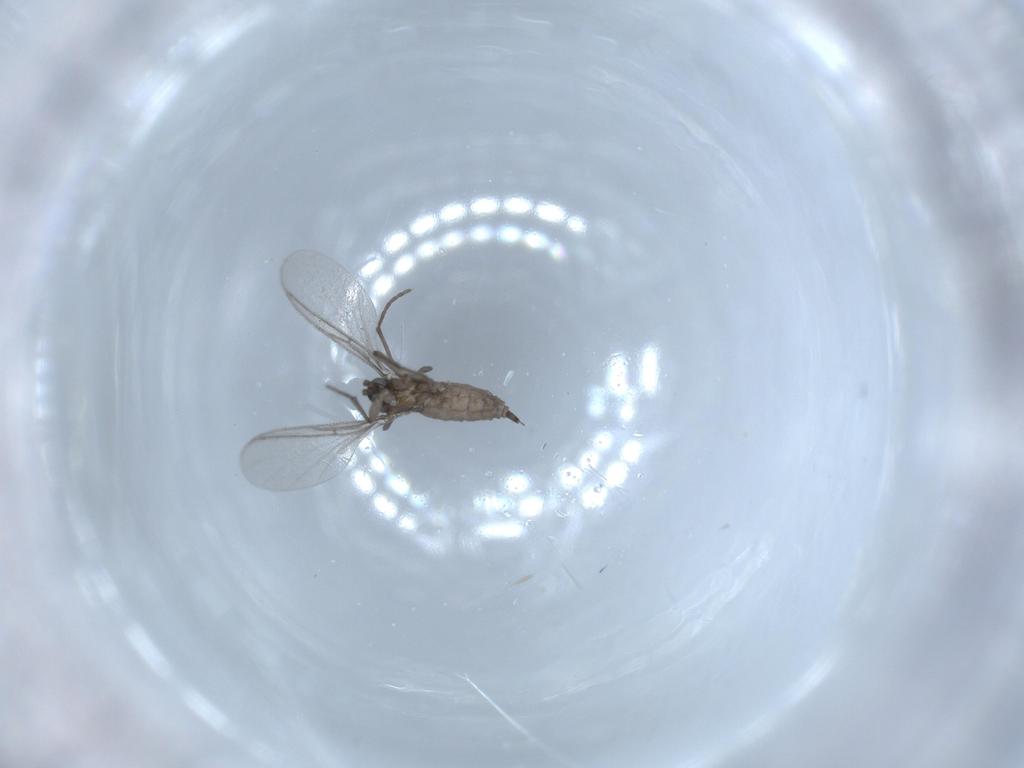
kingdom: Animalia
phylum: Arthropoda
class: Insecta
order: Diptera
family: Sciaridae
